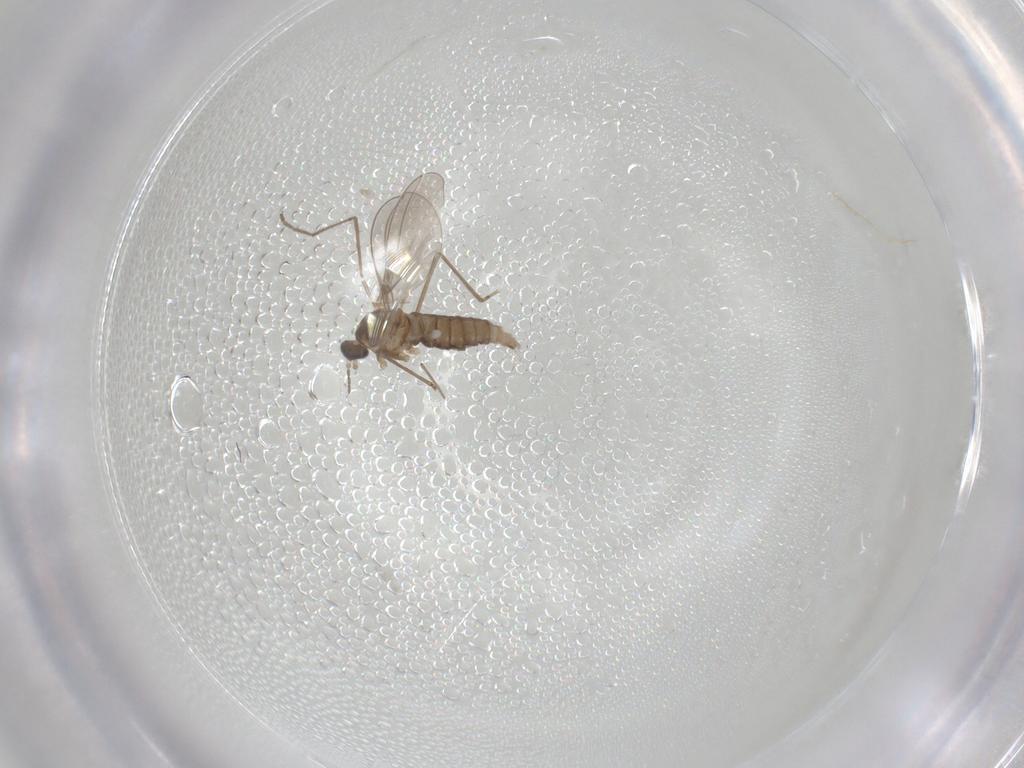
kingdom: Animalia
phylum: Arthropoda
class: Insecta
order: Diptera
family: Cecidomyiidae
